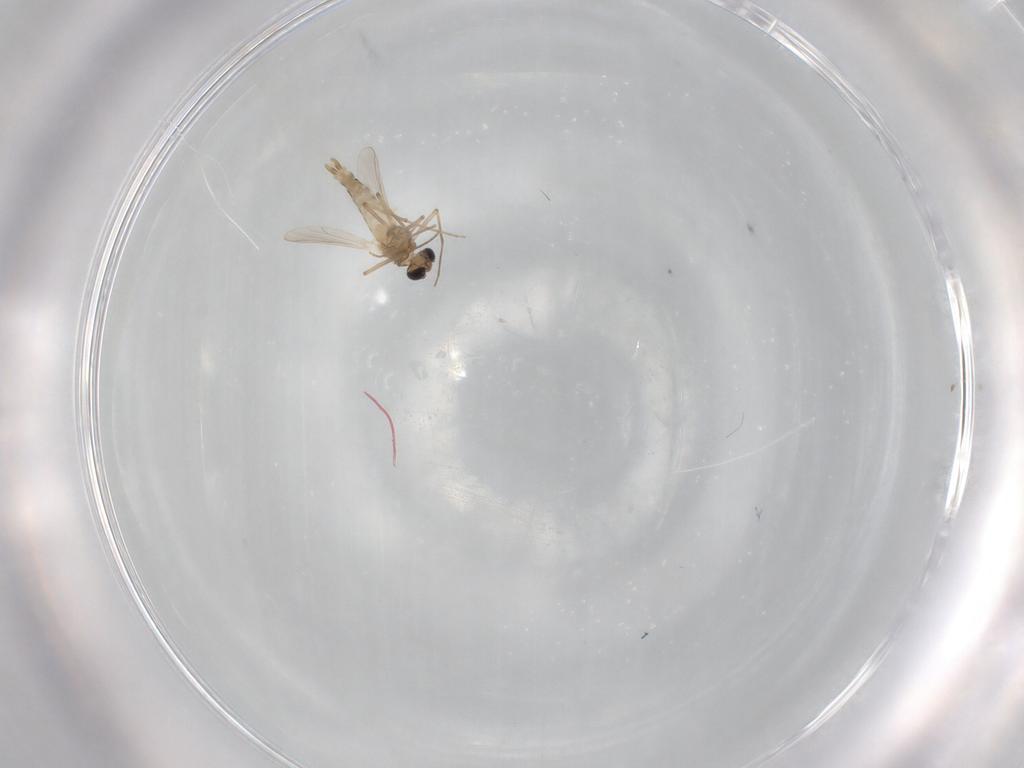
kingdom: Animalia
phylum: Arthropoda
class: Insecta
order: Diptera
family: Chironomidae
